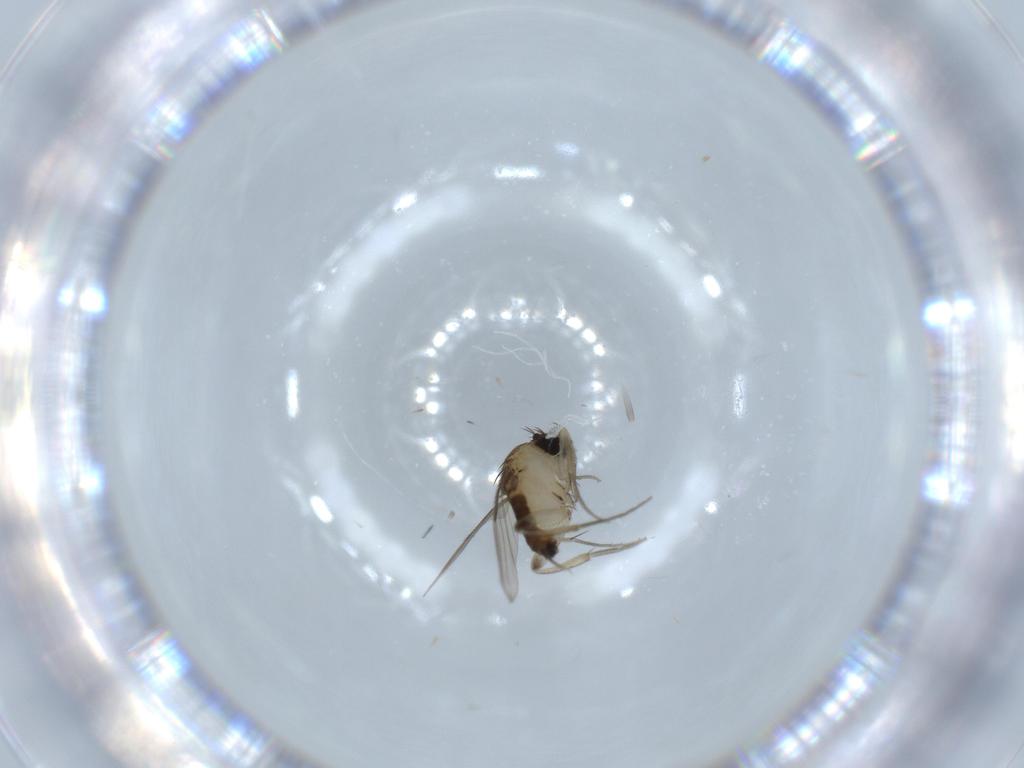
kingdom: Animalia
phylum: Arthropoda
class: Insecta
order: Diptera
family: Phoridae
